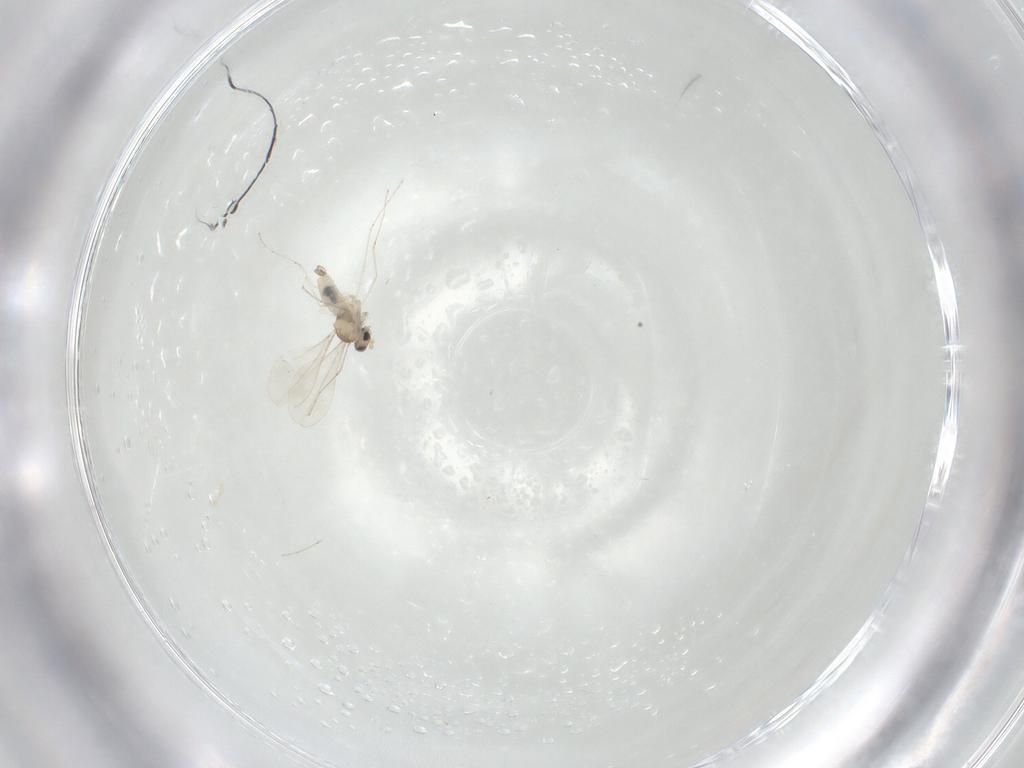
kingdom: Animalia
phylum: Arthropoda
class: Insecta
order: Diptera
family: Cecidomyiidae
